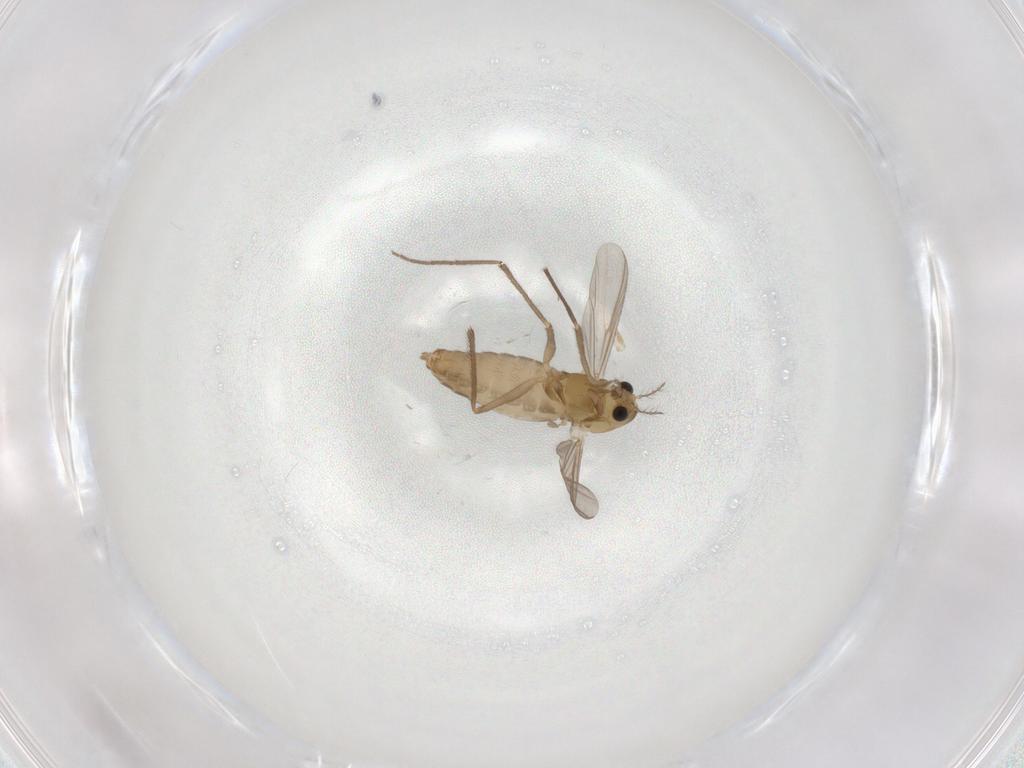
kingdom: Animalia
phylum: Arthropoda
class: Insecta
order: Diptera
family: Chironomidae
